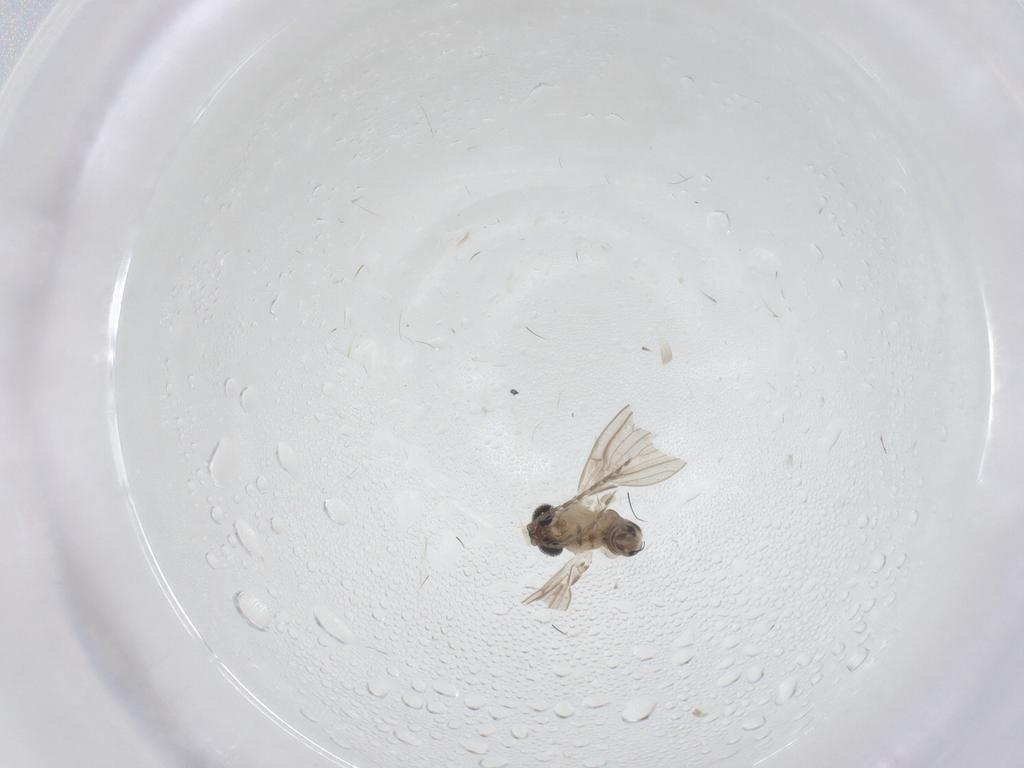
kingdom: Animalia
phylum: Arthropoda
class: Insecta
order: Diptera
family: Psychodidae
